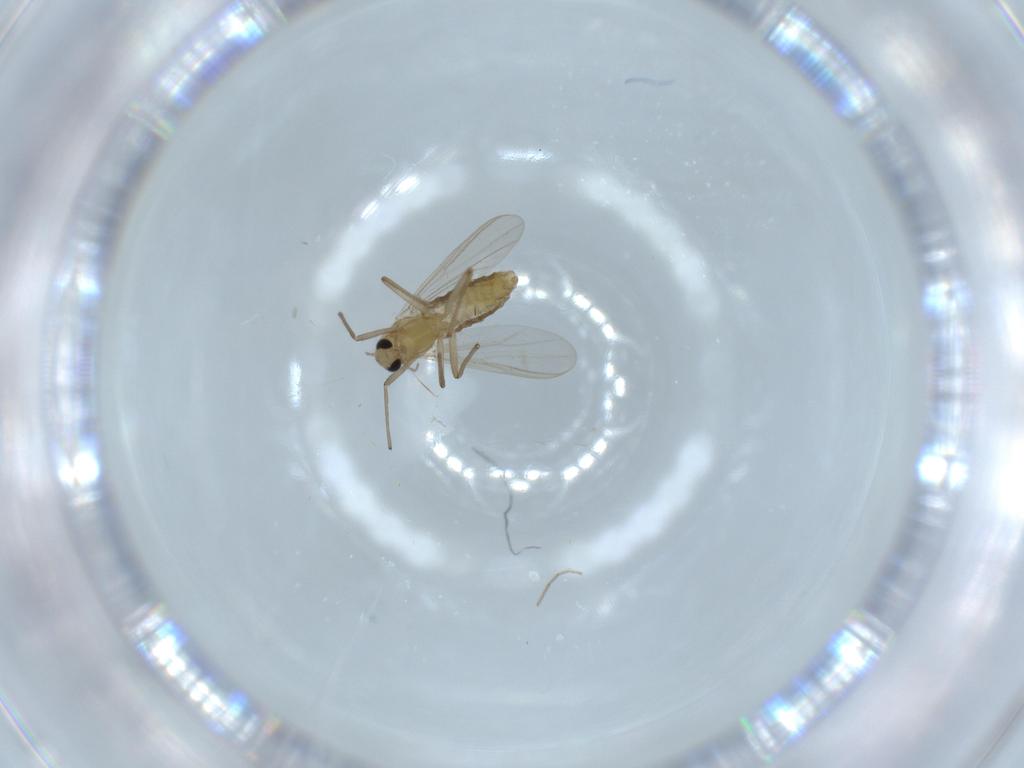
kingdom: Animalia
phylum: Arthropoda
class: Insecta
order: Diptera
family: Chironomidae
